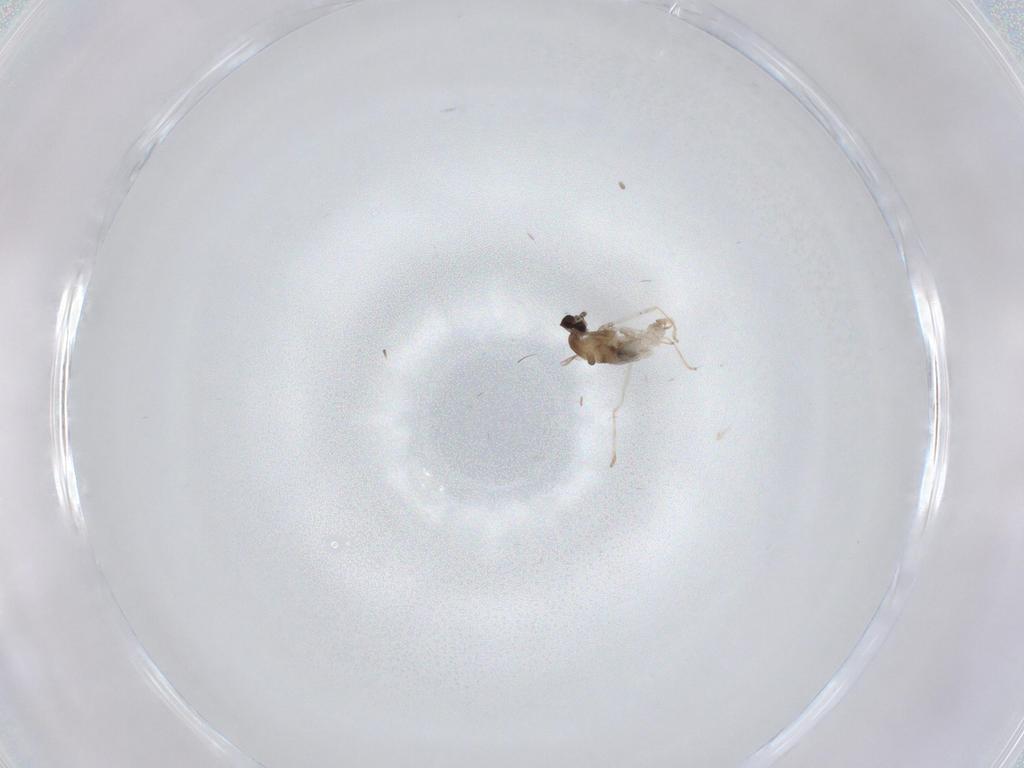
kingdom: Animalia
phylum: Arthropoda
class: Insecta
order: Diptera
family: Cecidomyiidae
